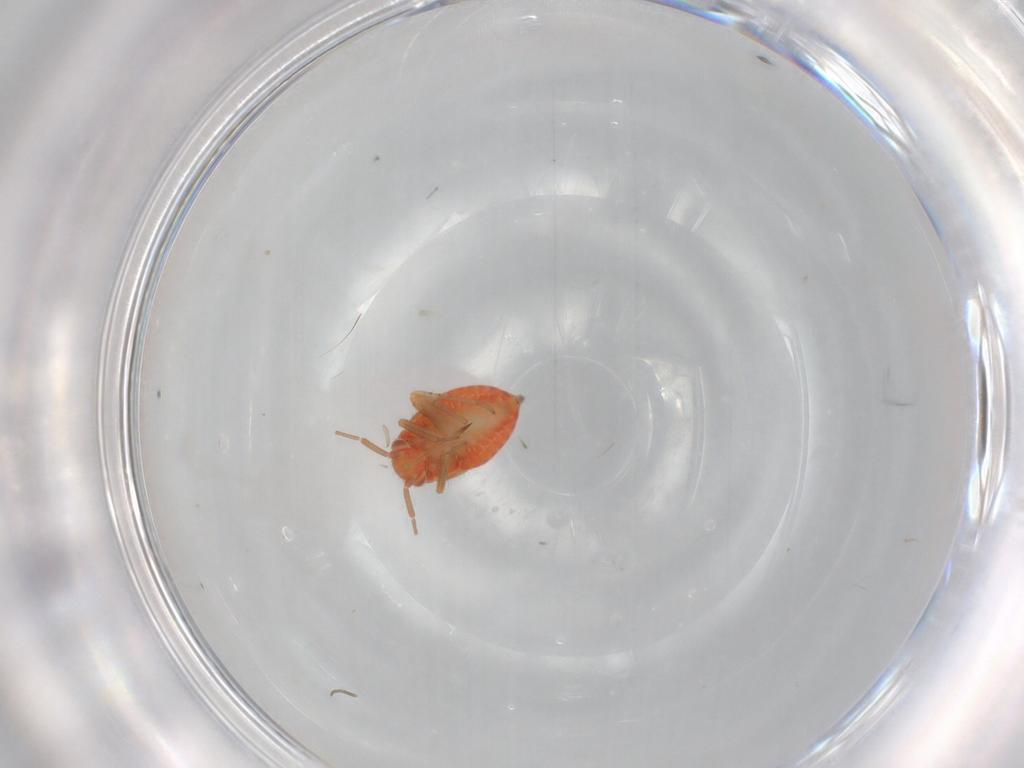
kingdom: Animalia
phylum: Arthropoda
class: Insecta
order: Hemiptera
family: Miridae
